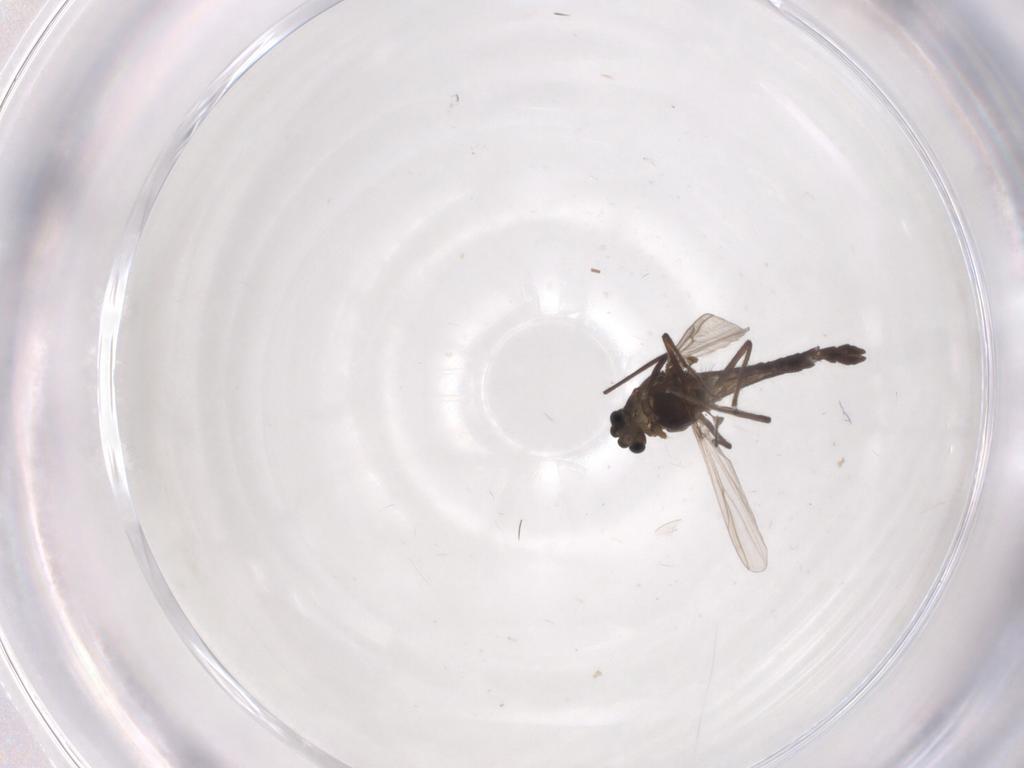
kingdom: Animalia
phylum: Arthropoda
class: Insecta
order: Diptera
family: Chironomidae
